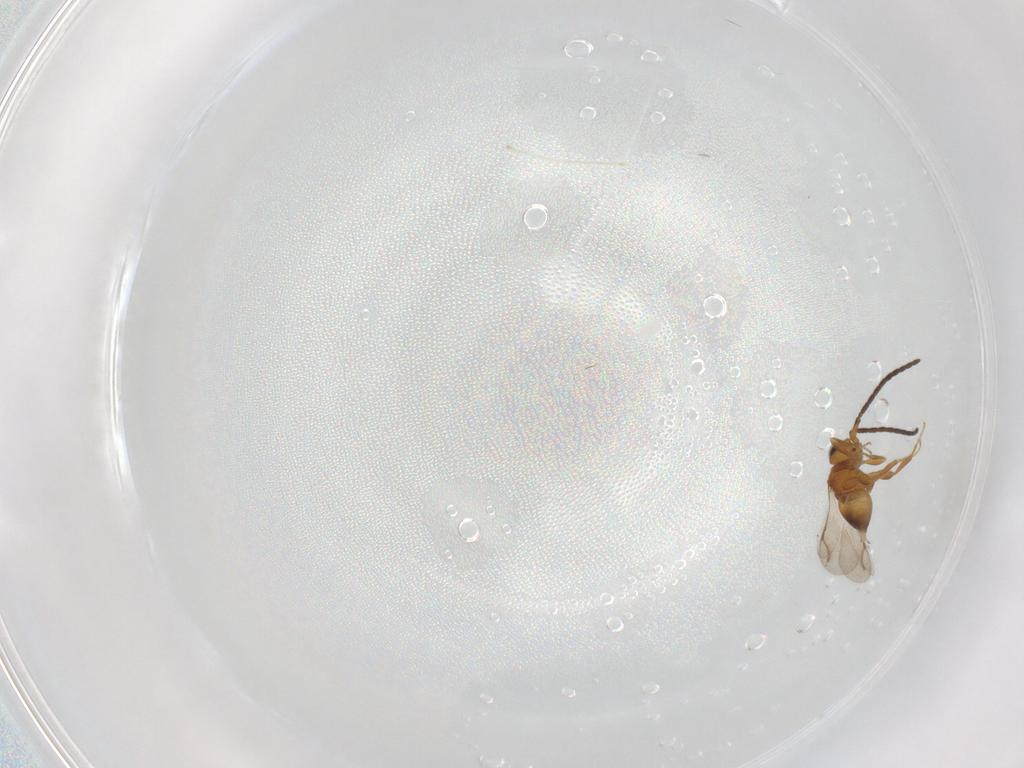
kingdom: Animalia
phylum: Arthropoda
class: Insecta
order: Hymenoptera
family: Mymaridae
